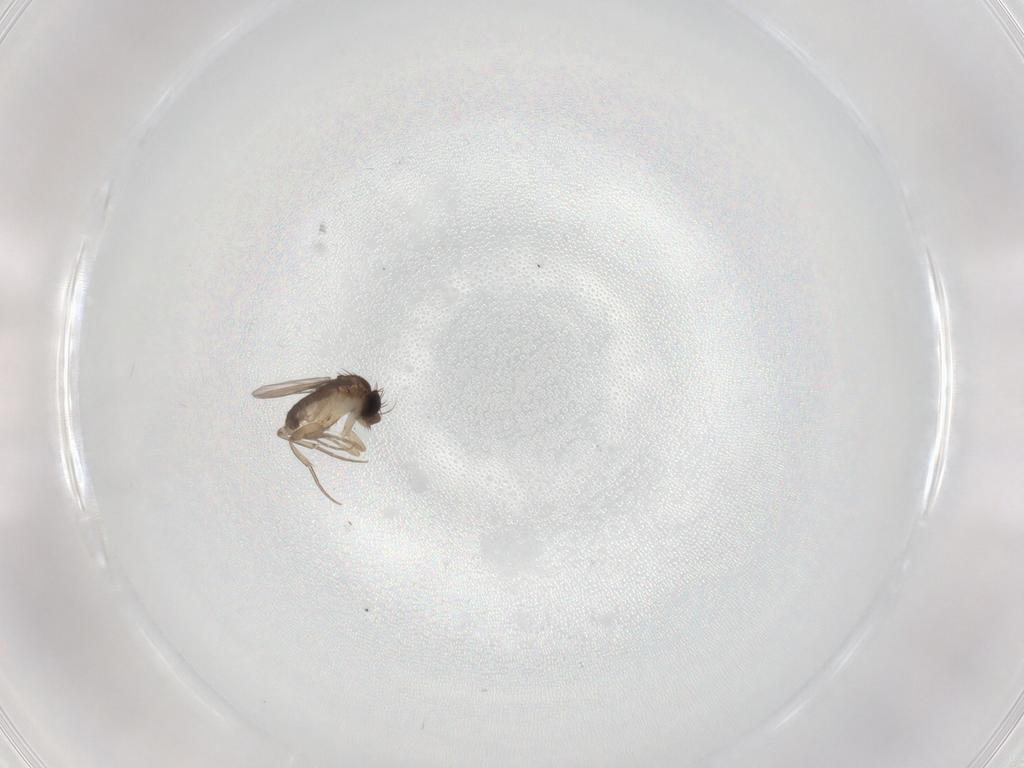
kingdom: Animalia
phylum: Arthropoda
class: Insecta
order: Diptera
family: Phoridae
